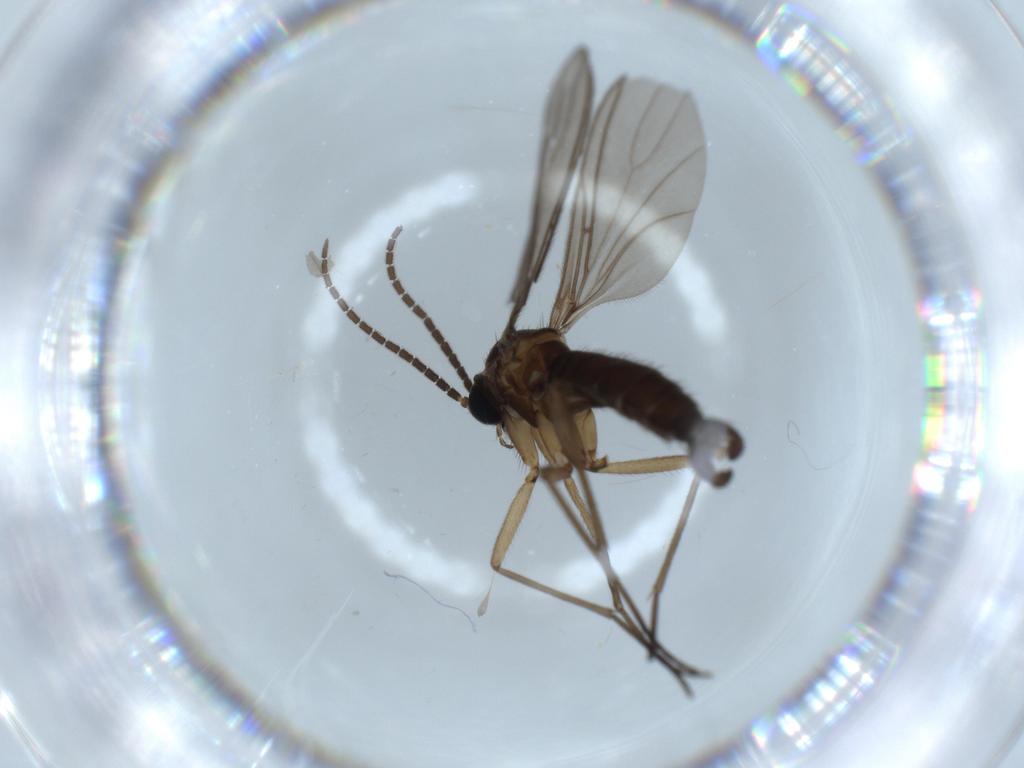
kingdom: Animalia
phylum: Arthropoda
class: Insecta
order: Diptera
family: Sciaridae
